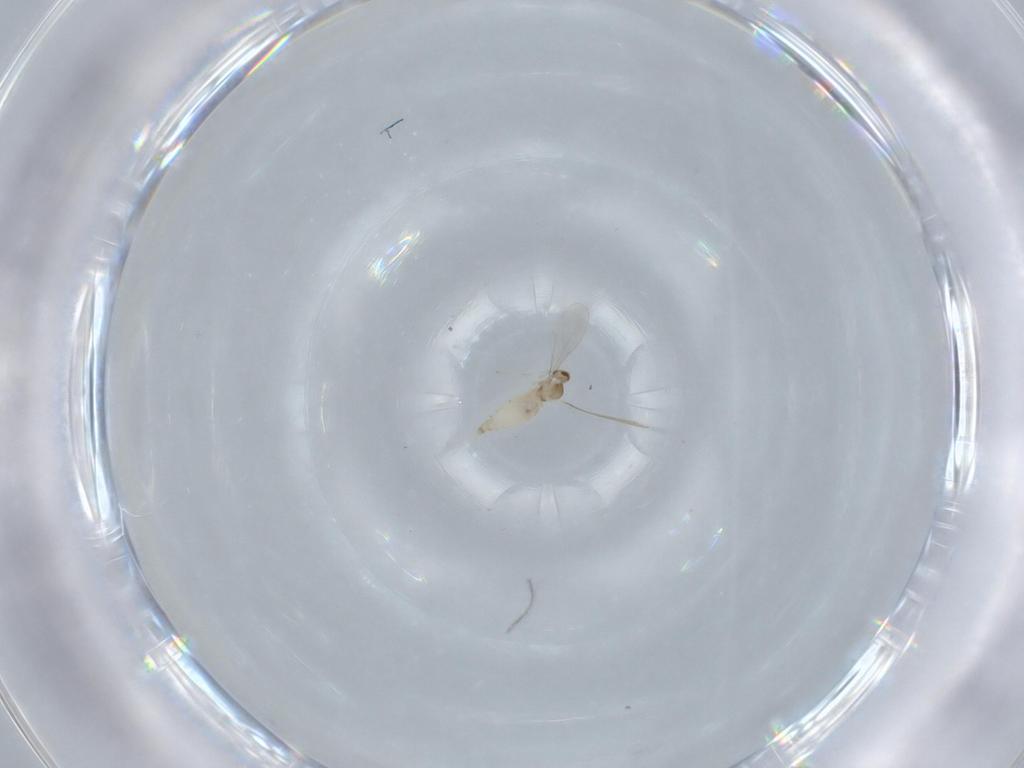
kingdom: Animalia
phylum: Arthropoda
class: Insecta
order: Diptera
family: Cecidomyiidae
